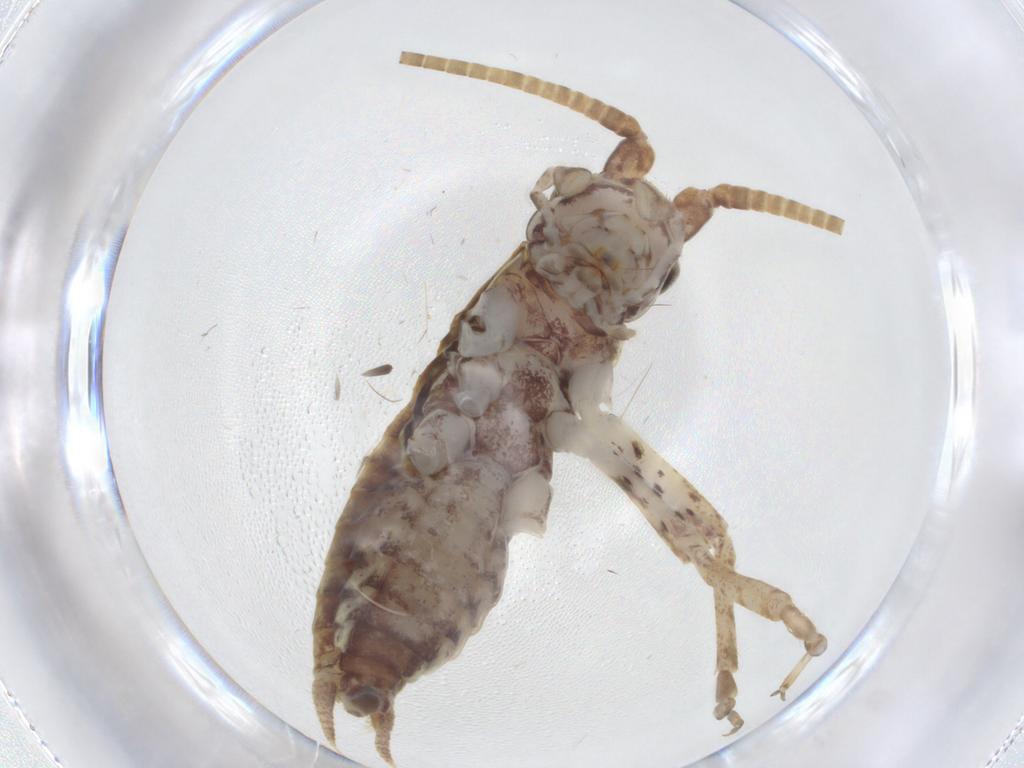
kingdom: Animalia
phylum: Arthropoda
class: Insecta
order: Orthoptera
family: Gryllidae
